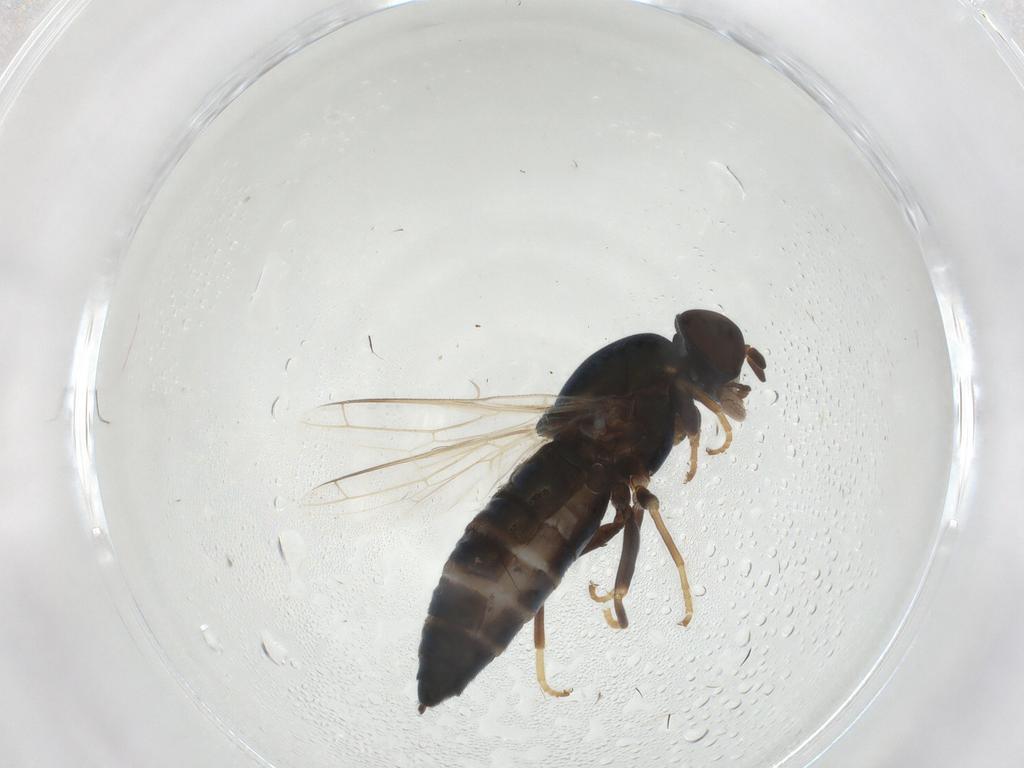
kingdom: Animalia
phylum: Arthropoda
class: Insecta
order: Diptera
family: Scenopinidae
